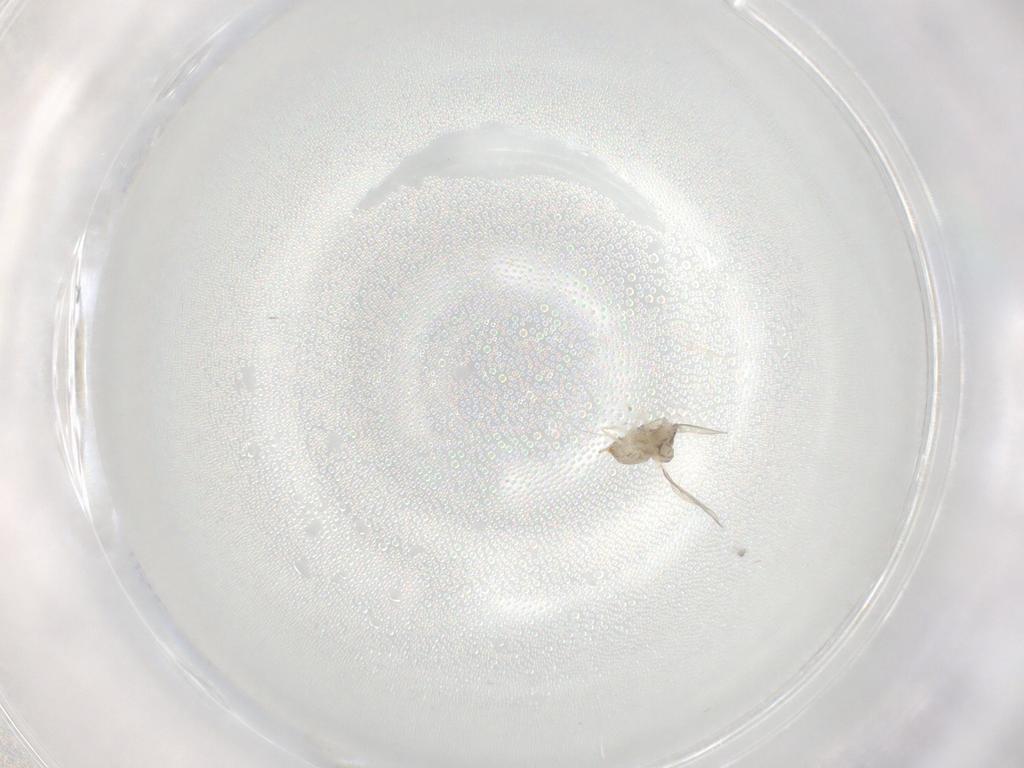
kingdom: Animalia
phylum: Arthropoda
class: Insecta
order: Diptera
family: Cecidomyiidae
